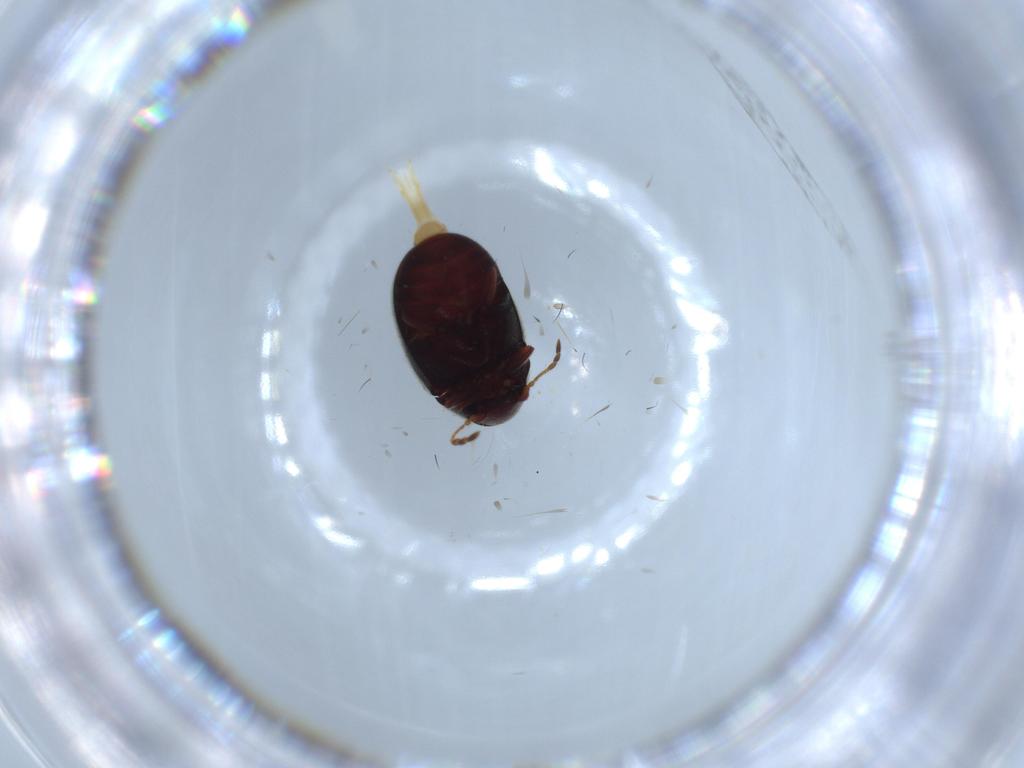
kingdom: Animalia
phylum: Arthropoda
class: Insecta
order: Coleoptera
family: Ptinidae
